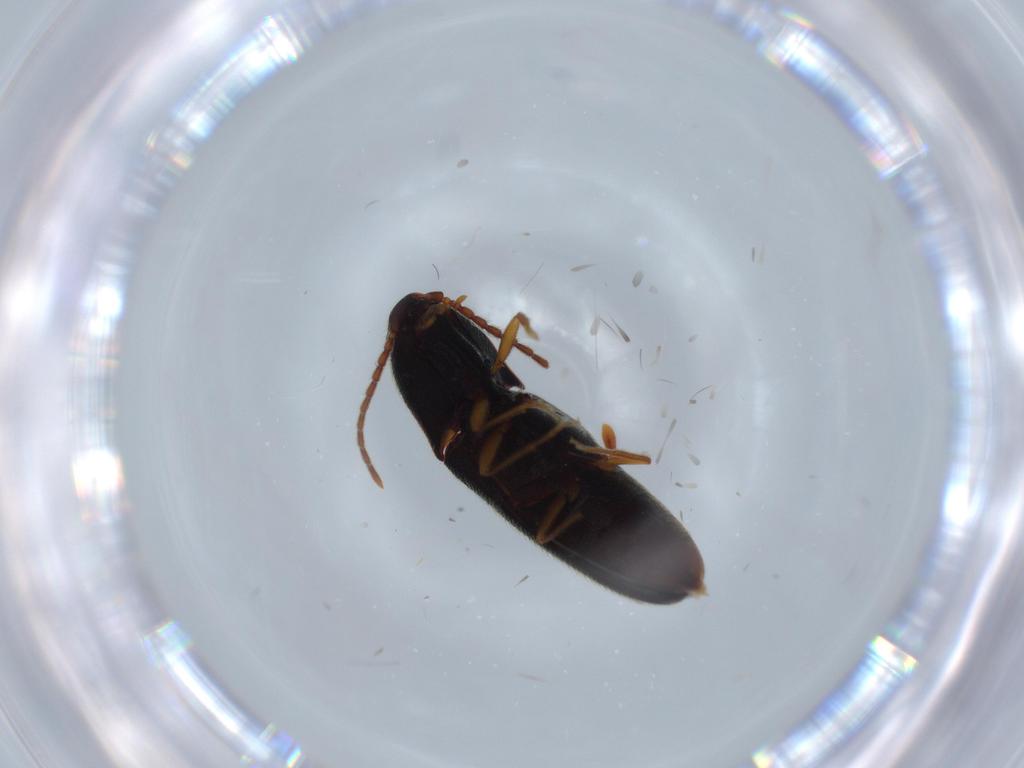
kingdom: Animalia
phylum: Arthropoda
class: Insecta
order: Coleoptera
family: Elateridae
